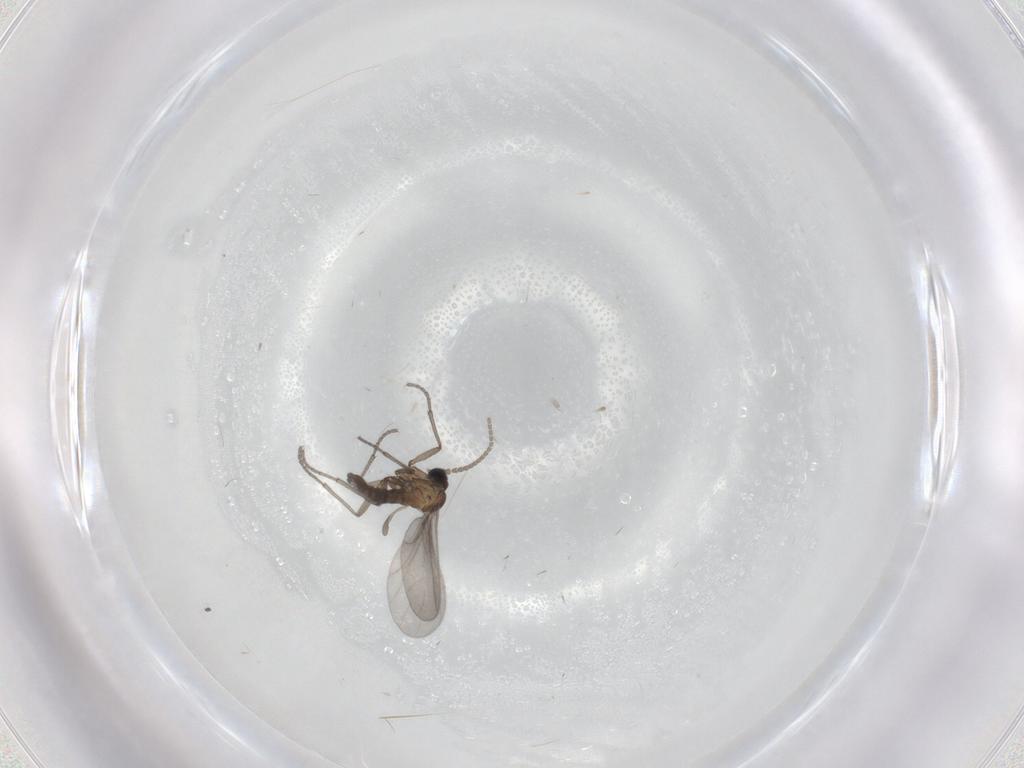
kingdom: Animalia
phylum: Arthropoda
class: Insecta
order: Diptera
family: Sciaridae
